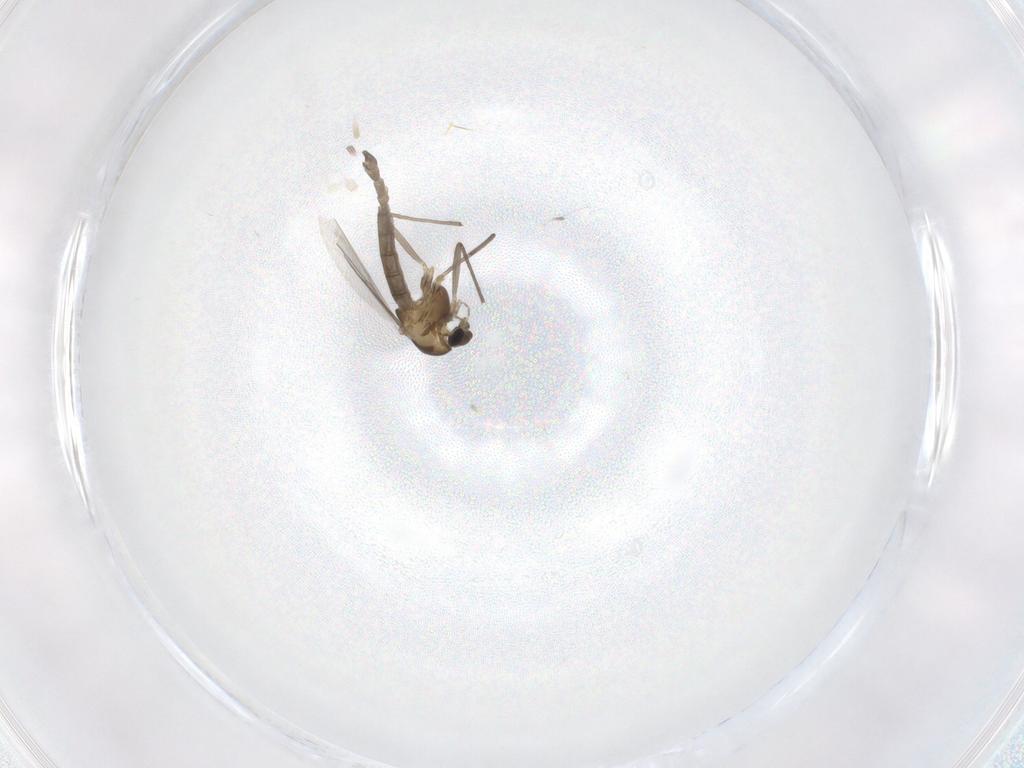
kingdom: Animalia
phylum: Arthropoda
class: Insecta
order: Diptera
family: Chironomidae
